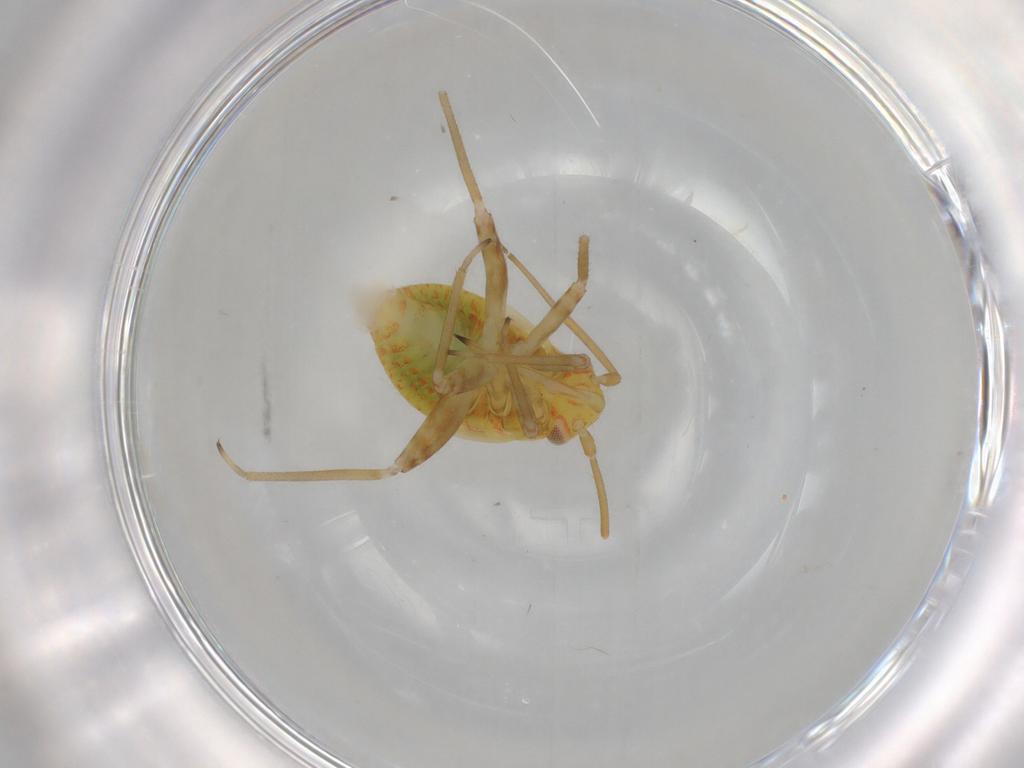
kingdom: Animalia
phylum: Arthropoda
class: Insecta
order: Hemiptera
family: Miridae
